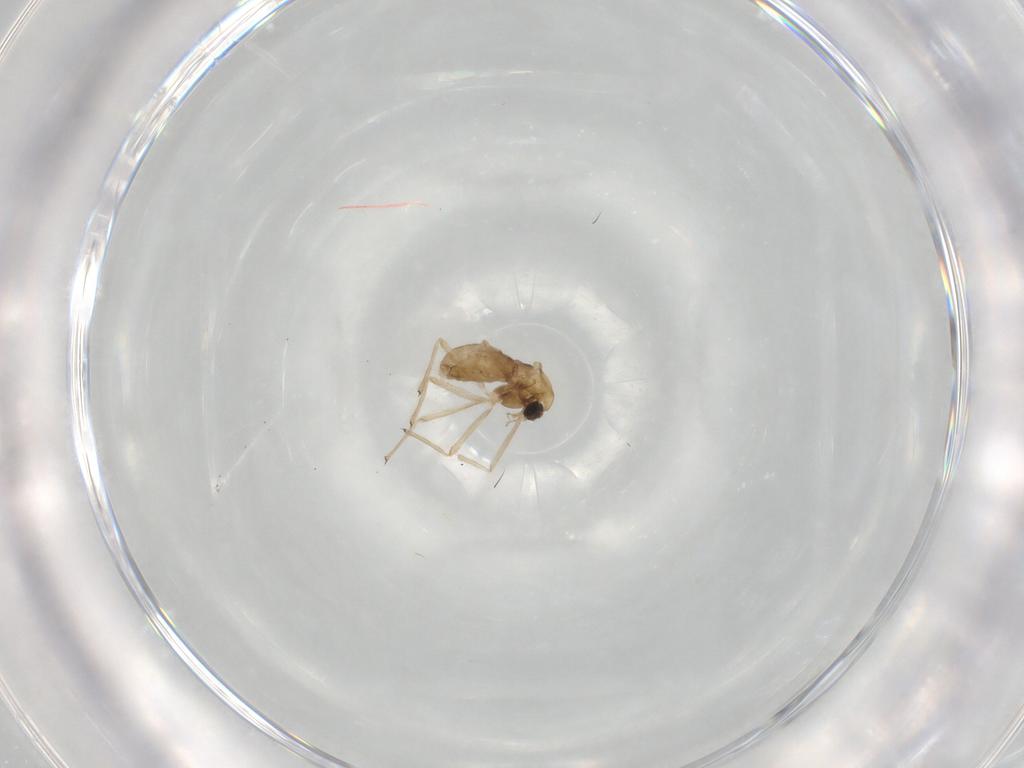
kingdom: Animalia
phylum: Arthropoda
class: Insecta
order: Diptera
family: Chironomidae
